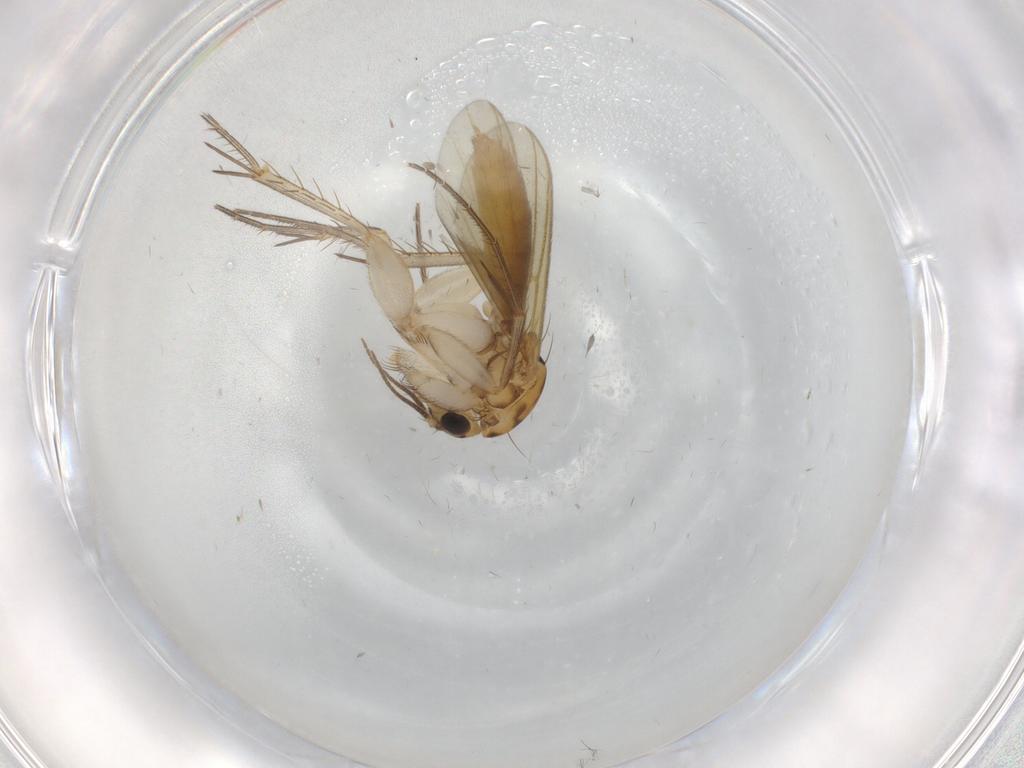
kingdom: Animalia
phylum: Arthropoda
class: Insecta
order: Diptera
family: Mycetophilidae
